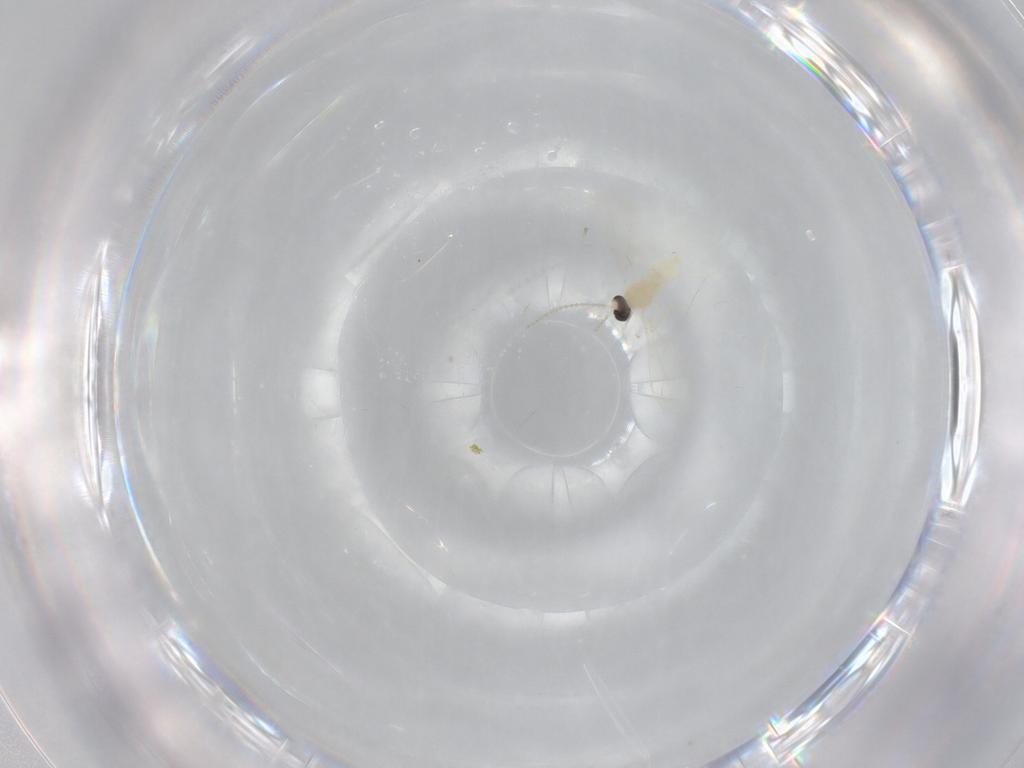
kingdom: Animalia
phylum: Arthropoda
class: Insecta
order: Diptera
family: Cecidomyiidae
